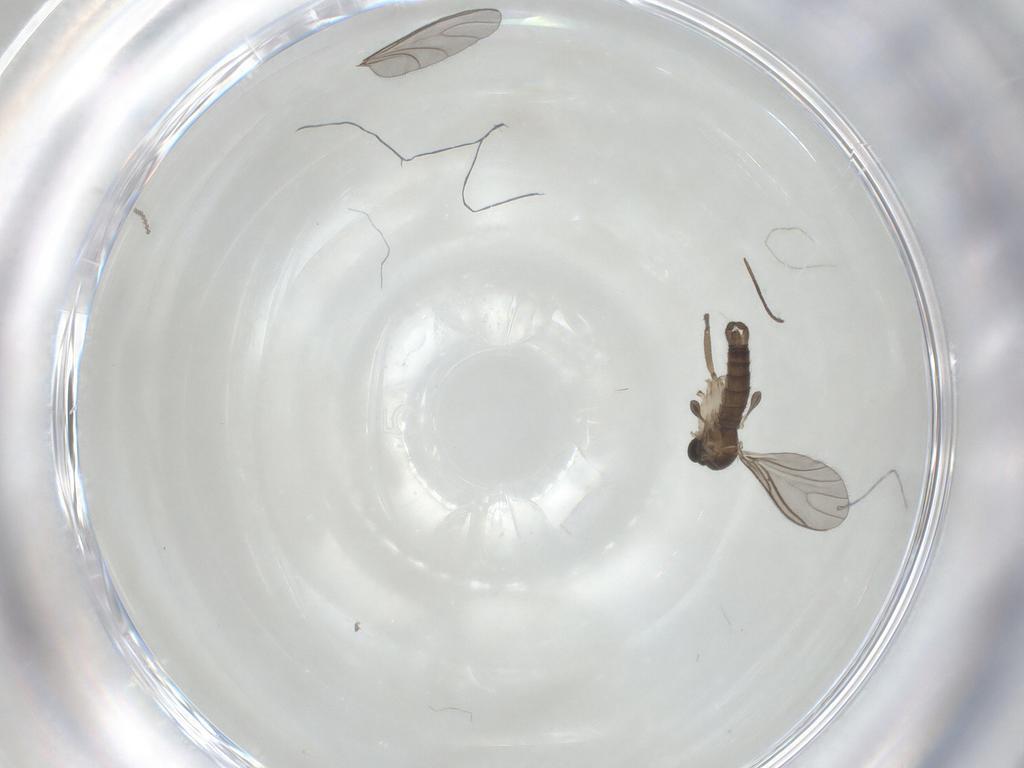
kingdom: Animalia
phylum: Arthropoda
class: Insecta
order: Diptera
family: Sciaridae
